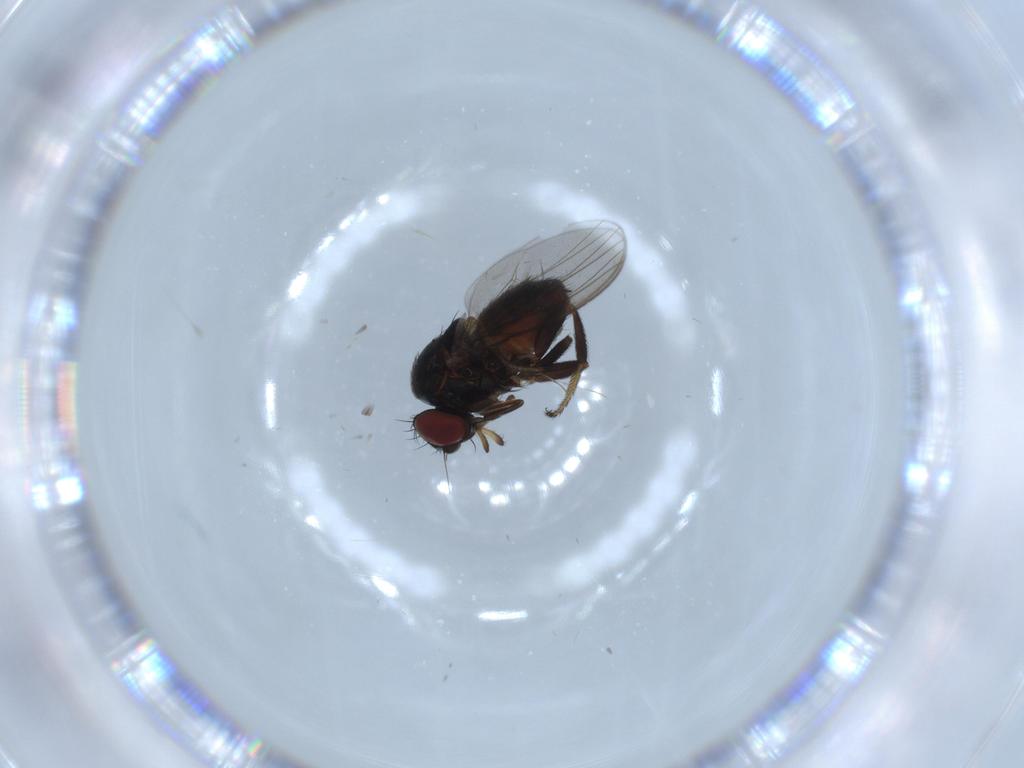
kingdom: Animalia
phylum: Arthropoda
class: Insecta
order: Diptera
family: Milichiidae
